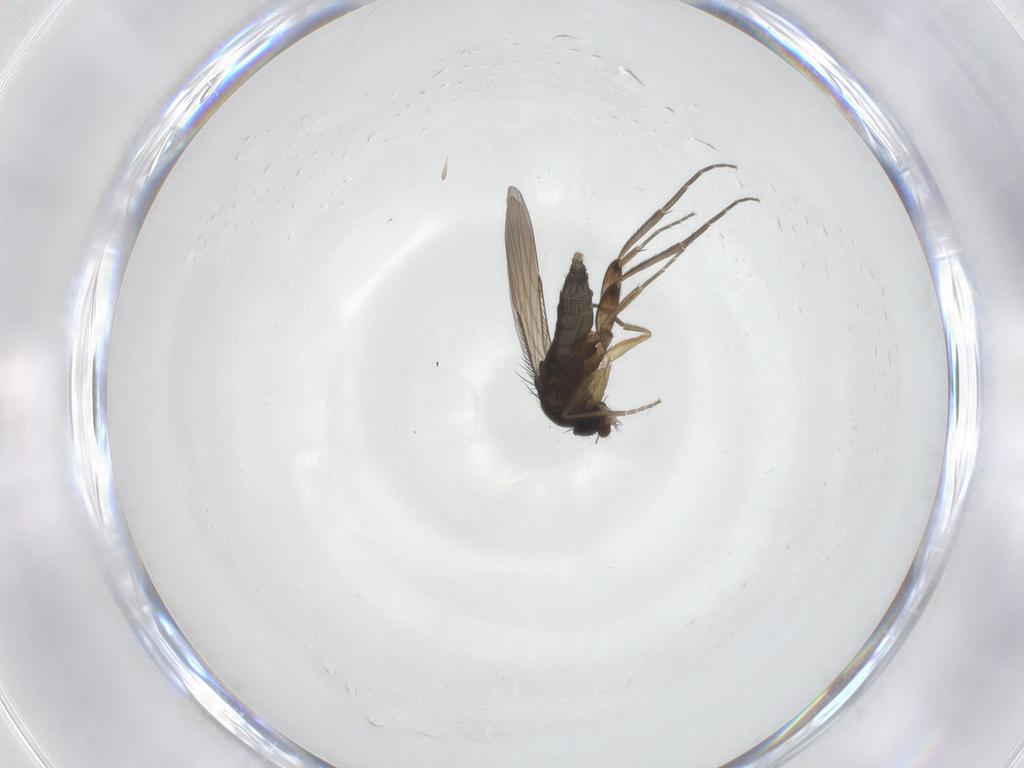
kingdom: Animalia
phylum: Arthropoda
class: Insecta
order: Diptera
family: Phoridae
